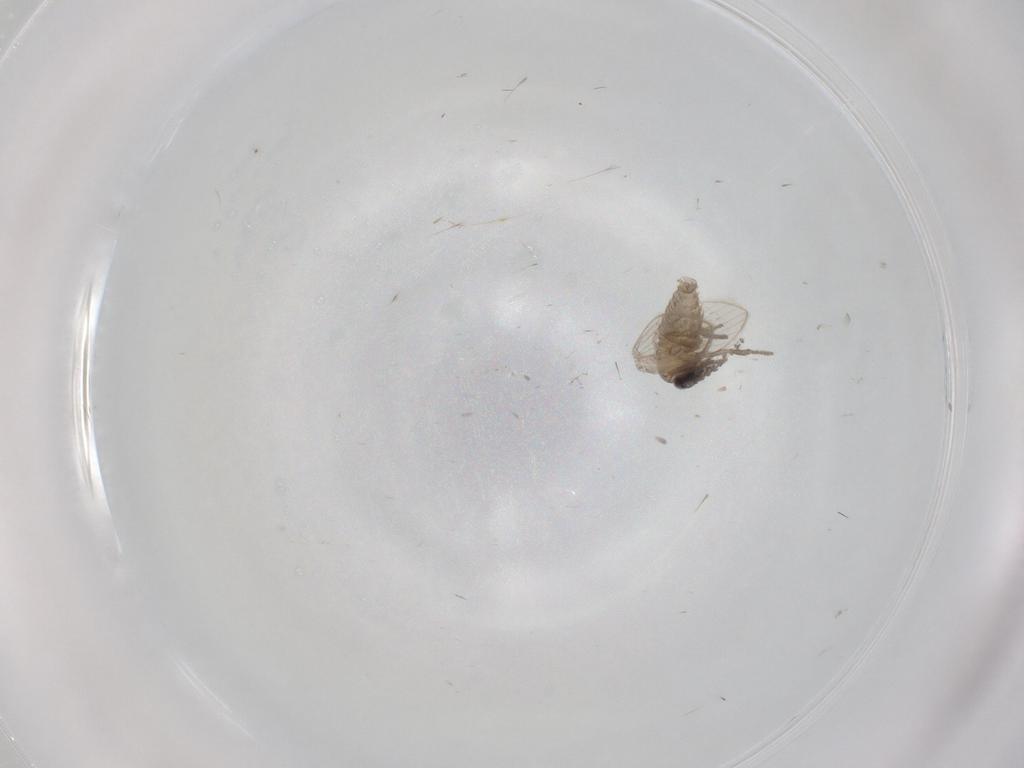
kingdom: Animalia
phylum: Arthropoda
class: Insecta
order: Diptera
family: Psychodidae
